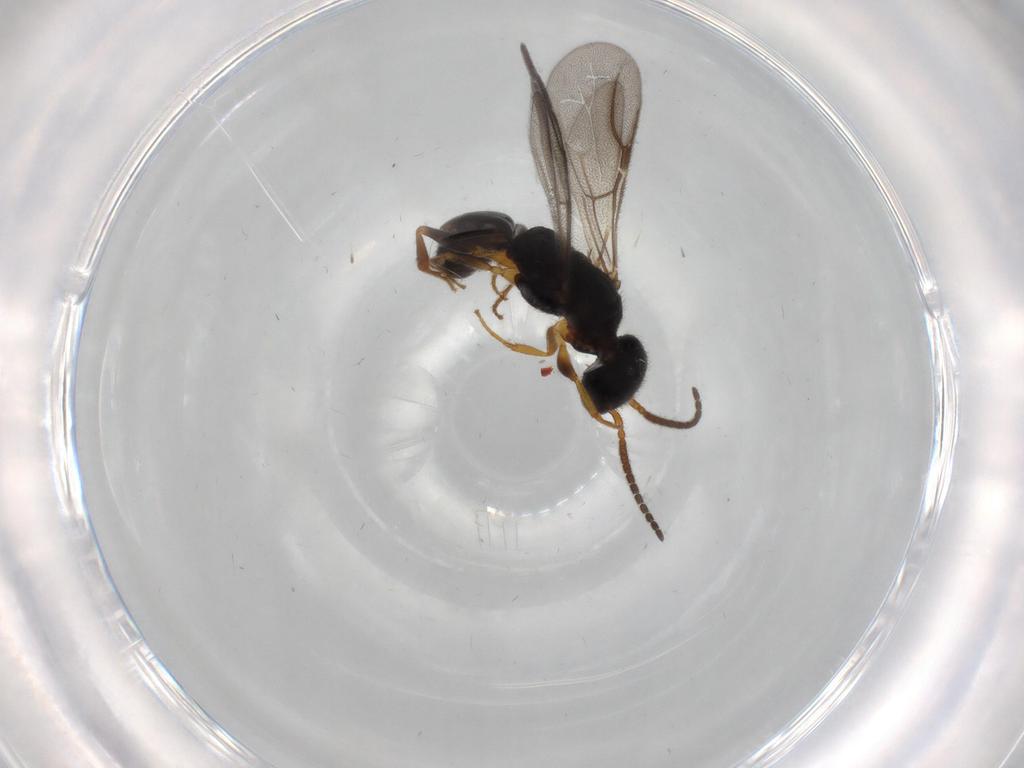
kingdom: Animalia
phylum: Arthropoda
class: Insecta
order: Hymenoptera
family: Bethylidae
